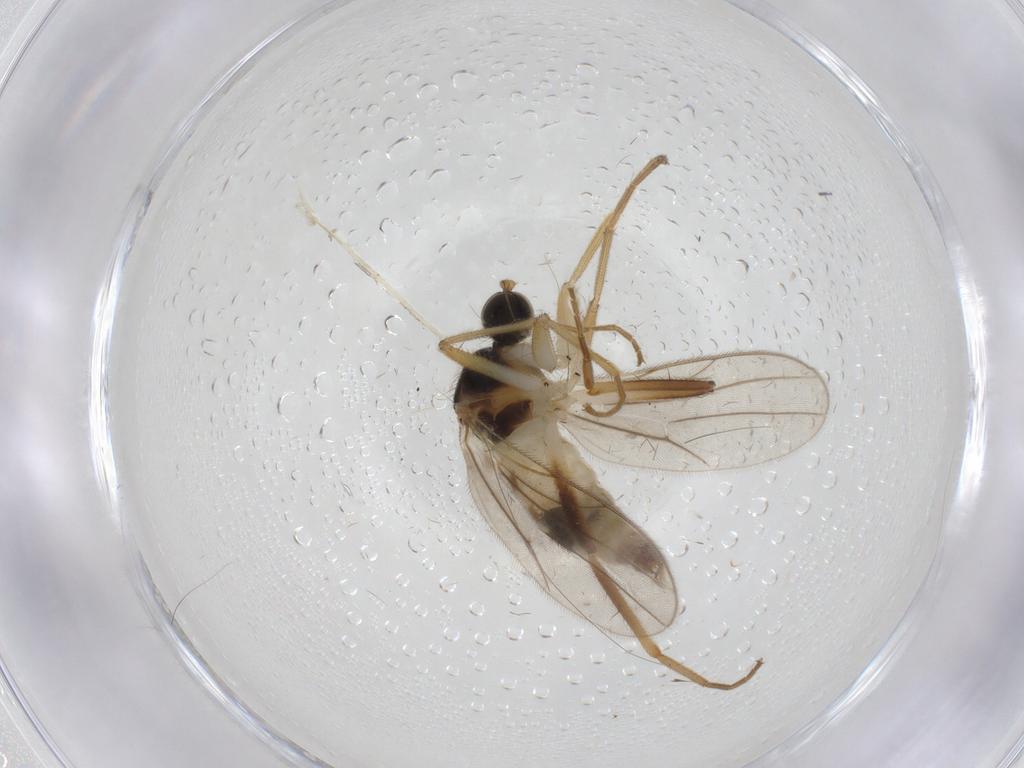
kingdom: Animalia
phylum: Arthropoda
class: Insecta
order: Diptera
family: Hybotidae
